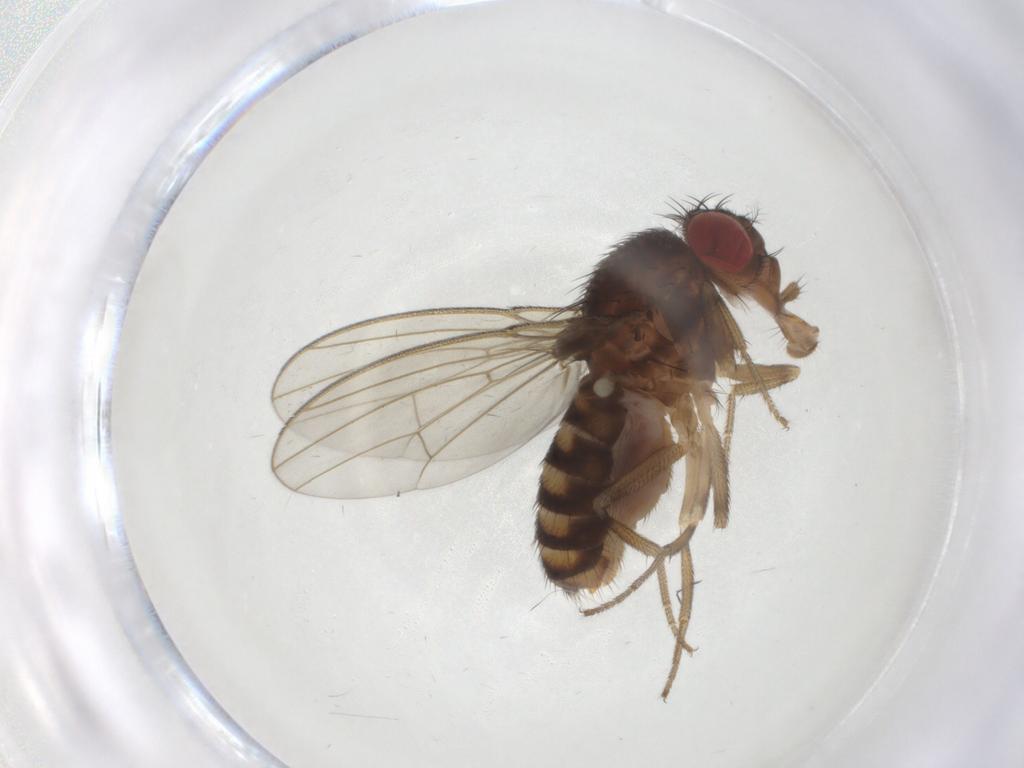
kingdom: Animalia
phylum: Arthropoda
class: Insecta
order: Diptera
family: Drosophilidae
